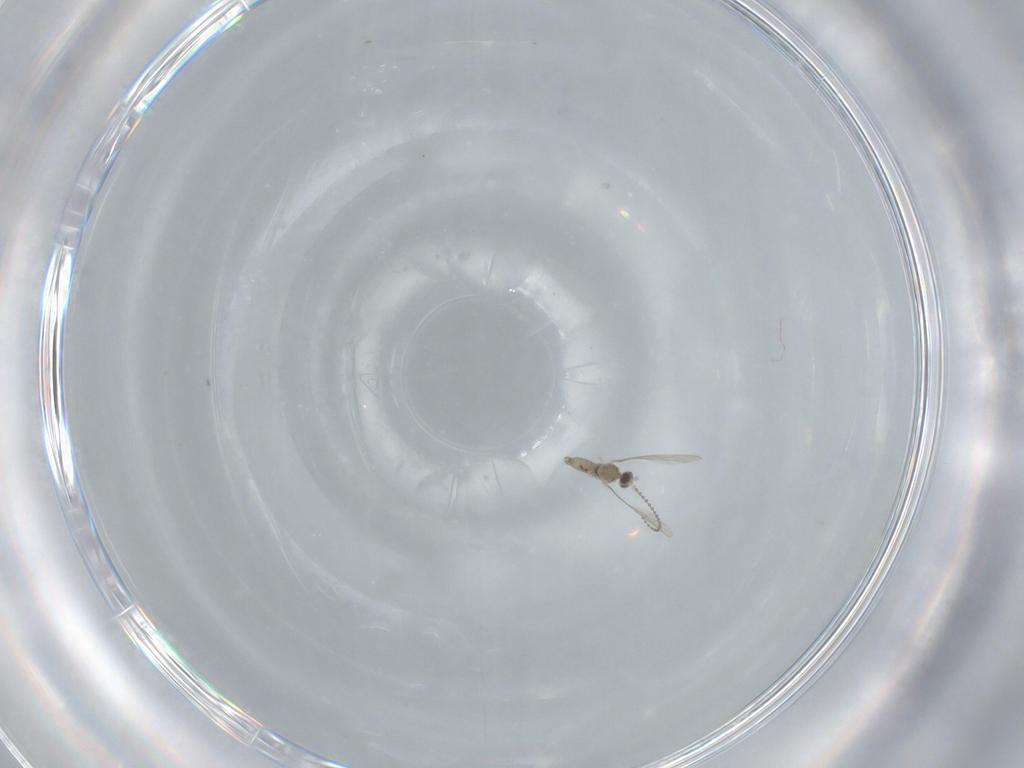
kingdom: Animalia
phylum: Arthropoda
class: Insecta
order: Diptera
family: Cecidomyiidae
